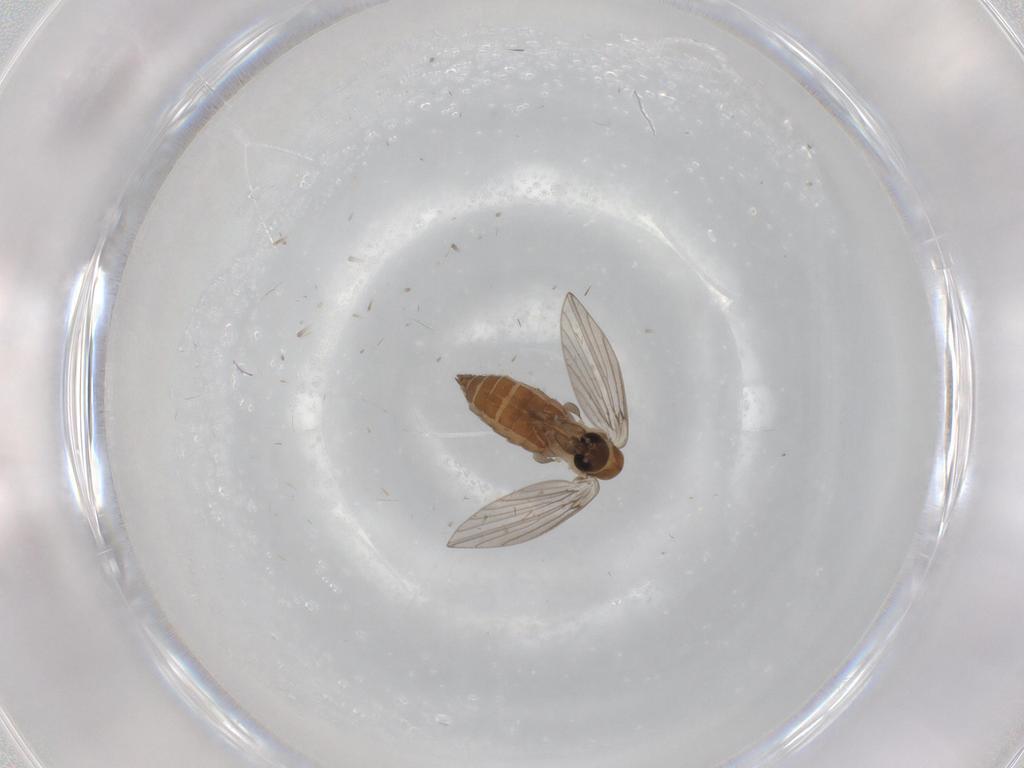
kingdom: Animalia
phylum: Arthropoda
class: Insecta
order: Diptera
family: Psychodidae
